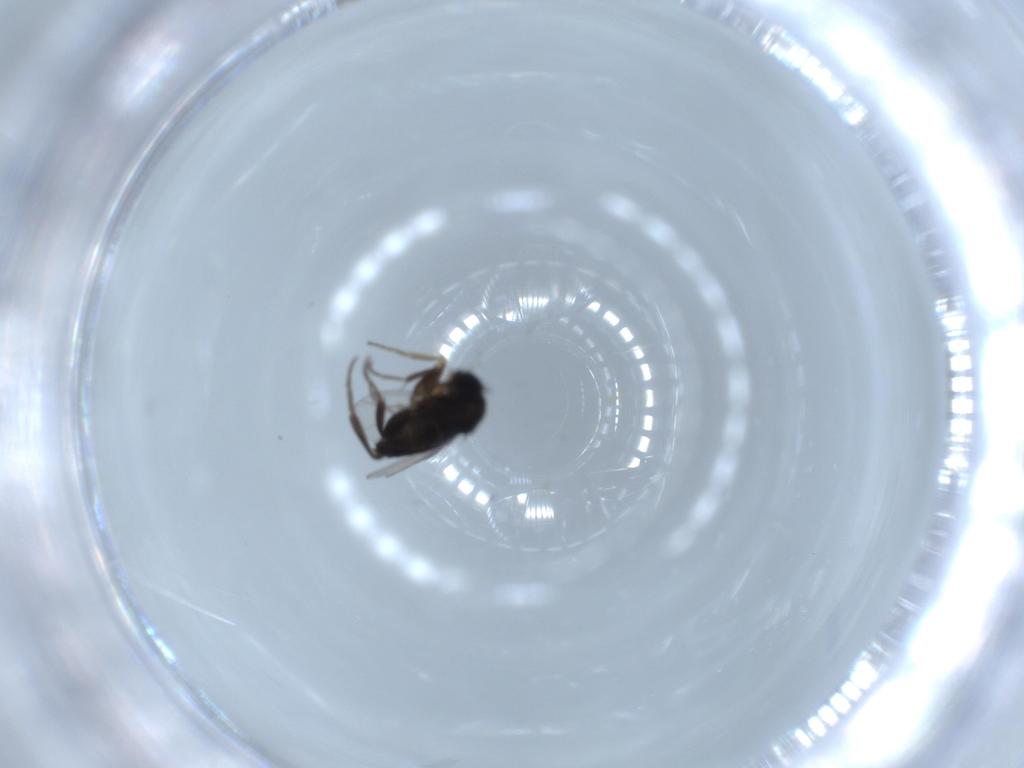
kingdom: Animalia
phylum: Arthropoda
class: Insecta
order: Diptera
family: Phoridae
